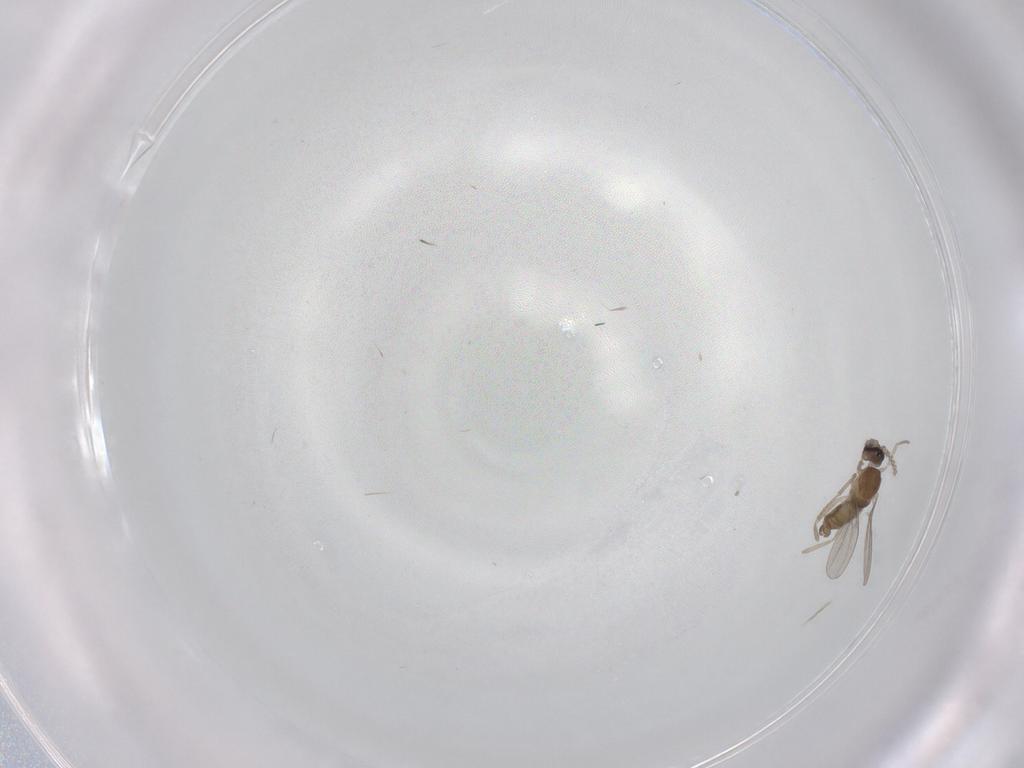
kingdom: Animalia
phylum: Arthropoda
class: Insecta
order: Diptera
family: Cecidomyiidae
